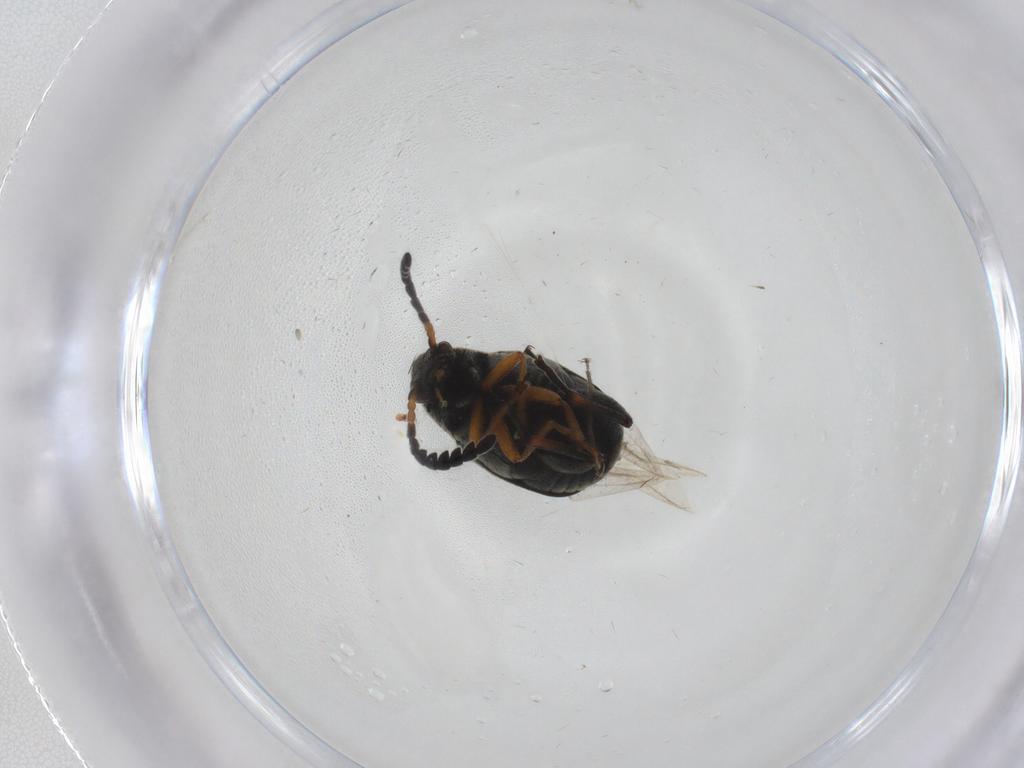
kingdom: Animalia
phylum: Arthropoda
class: Insecta
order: Coleoptera
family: Chrysomelidae
